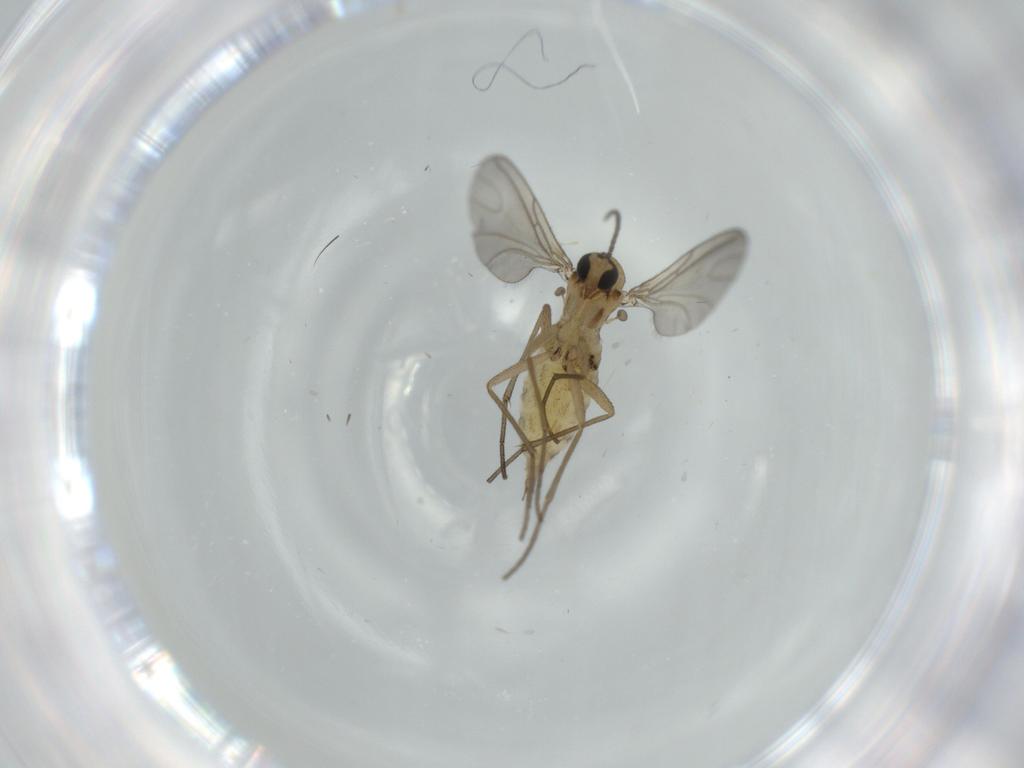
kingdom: Animalia
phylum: Arthropoda
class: Insecta
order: Diptera
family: Sciaridae
